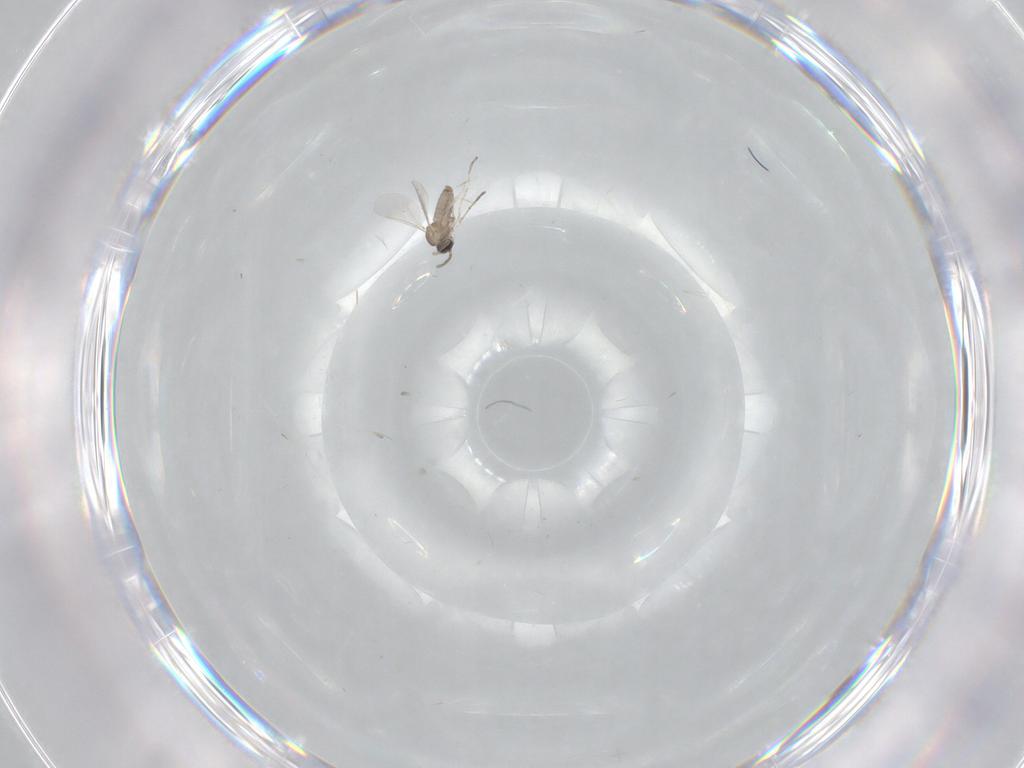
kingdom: Animalia
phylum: Arthropoda
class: Insecta
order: Diptera
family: Cecidomyiidae
